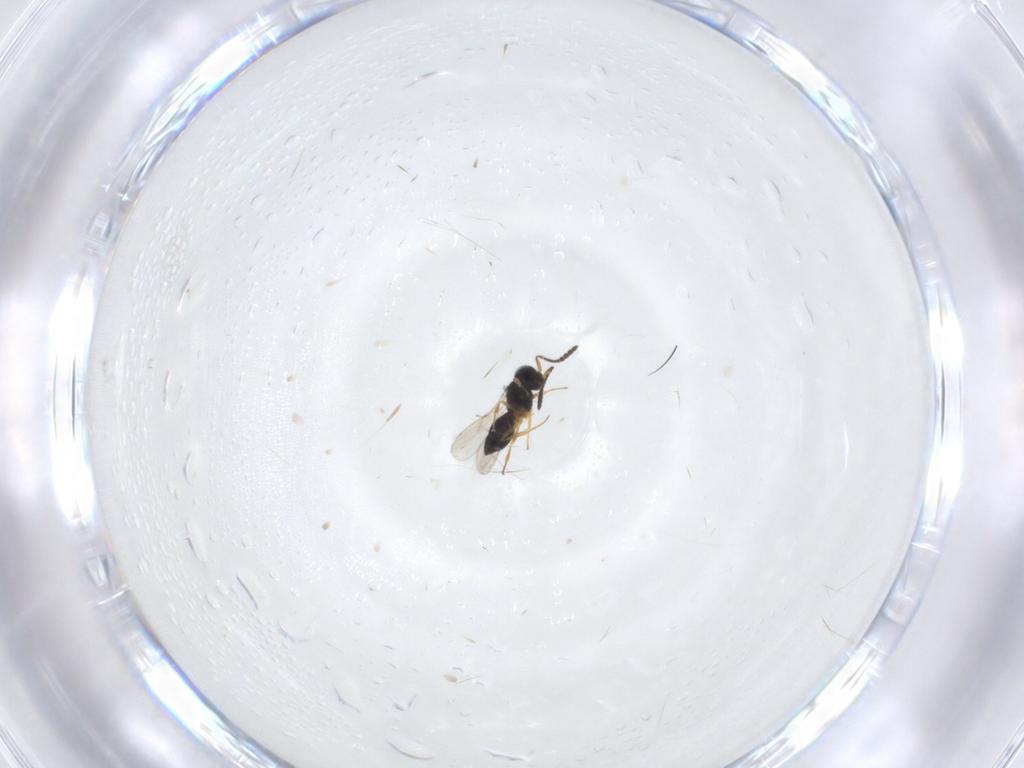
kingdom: Animalia
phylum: Arthropoda
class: Insecta
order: Hymenoptera
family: Scelionidae
